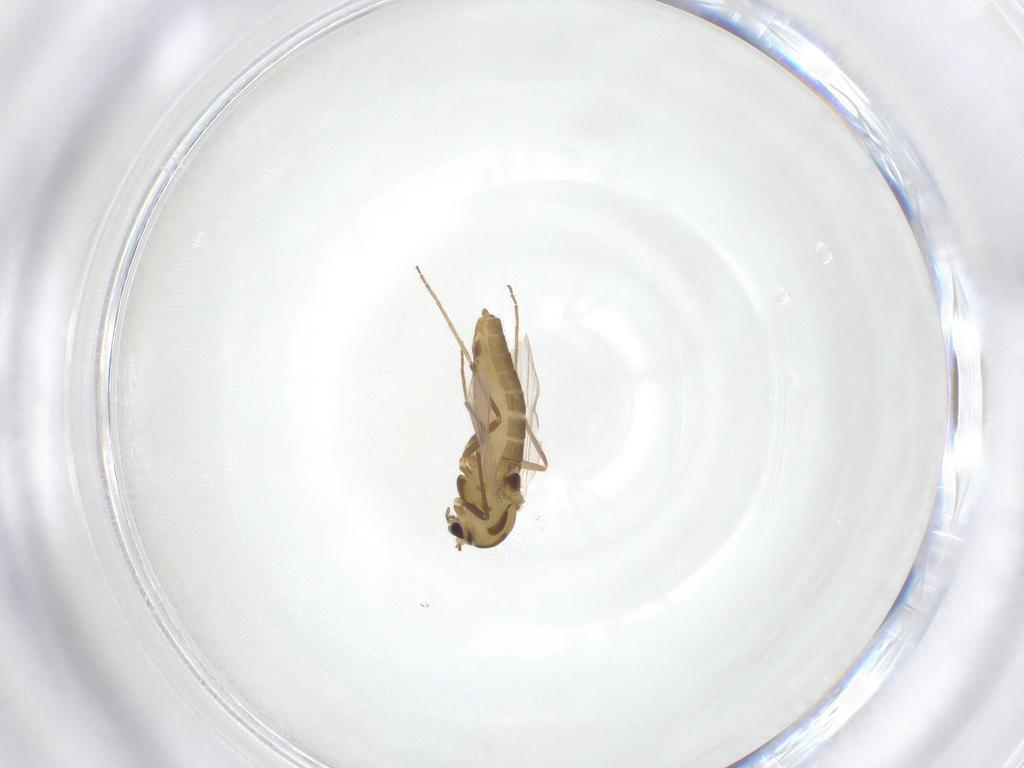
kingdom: Animalia
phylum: Arthropoda
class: Insecta
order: Diptera
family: Chironomidae
